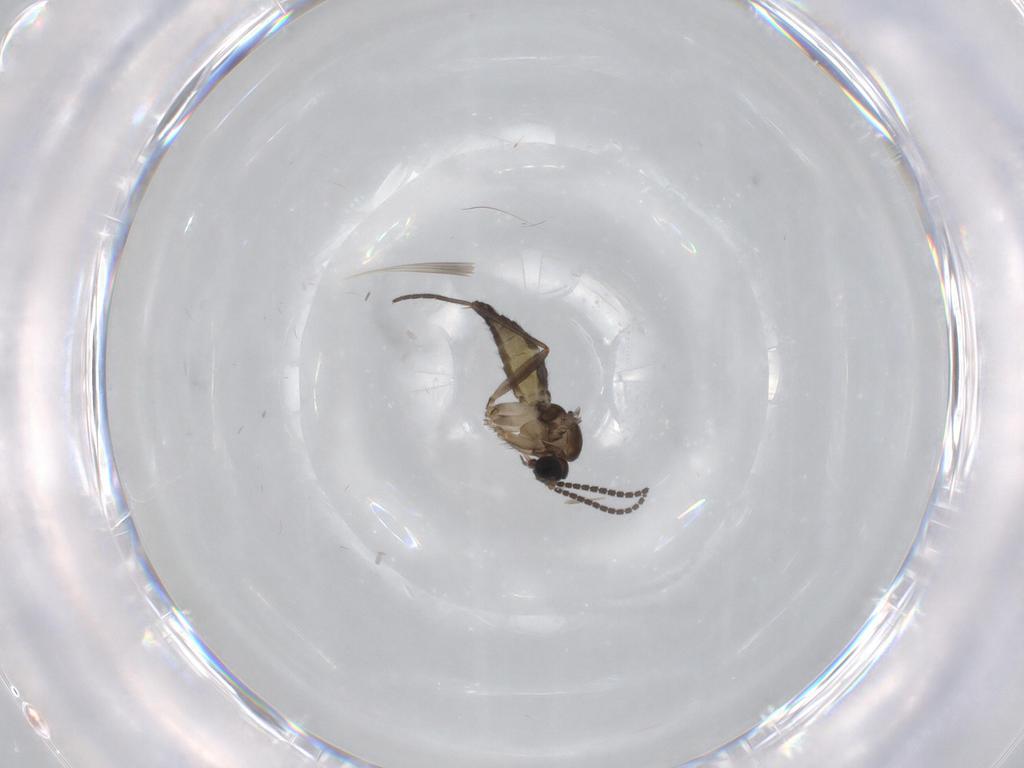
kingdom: Animalia
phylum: Arthropoda
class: Insecta
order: Diptera
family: Sciaridae
